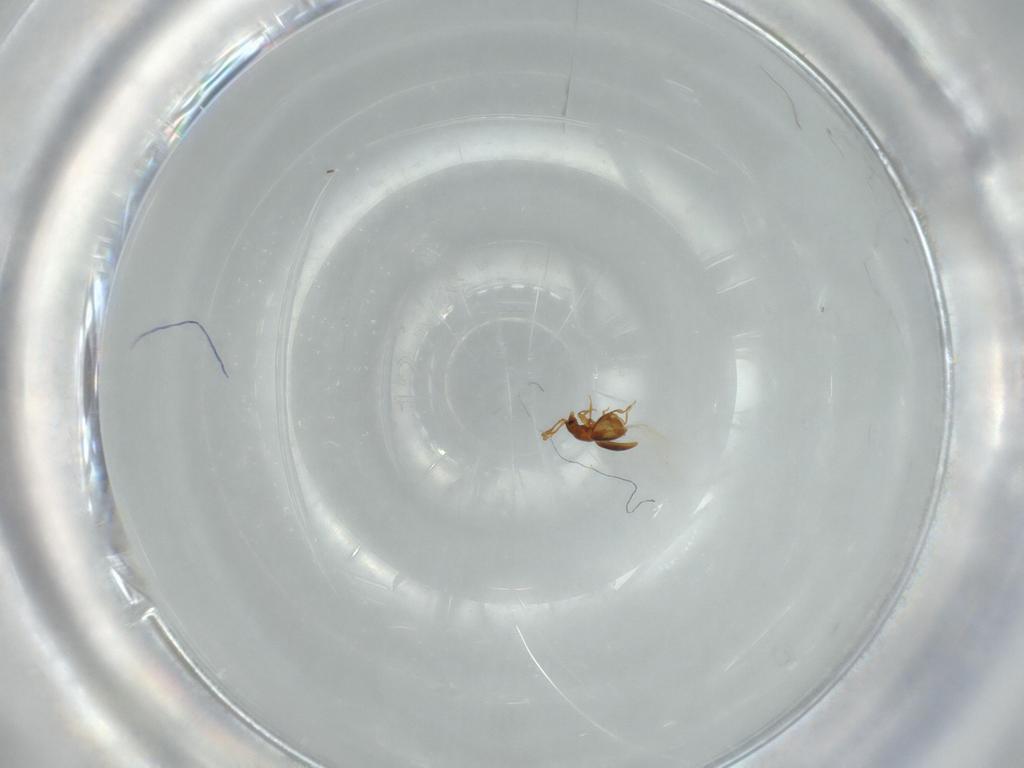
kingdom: Animalia
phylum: Arthropoda
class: Insecta
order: Coleoptera
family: Staphylinidae
